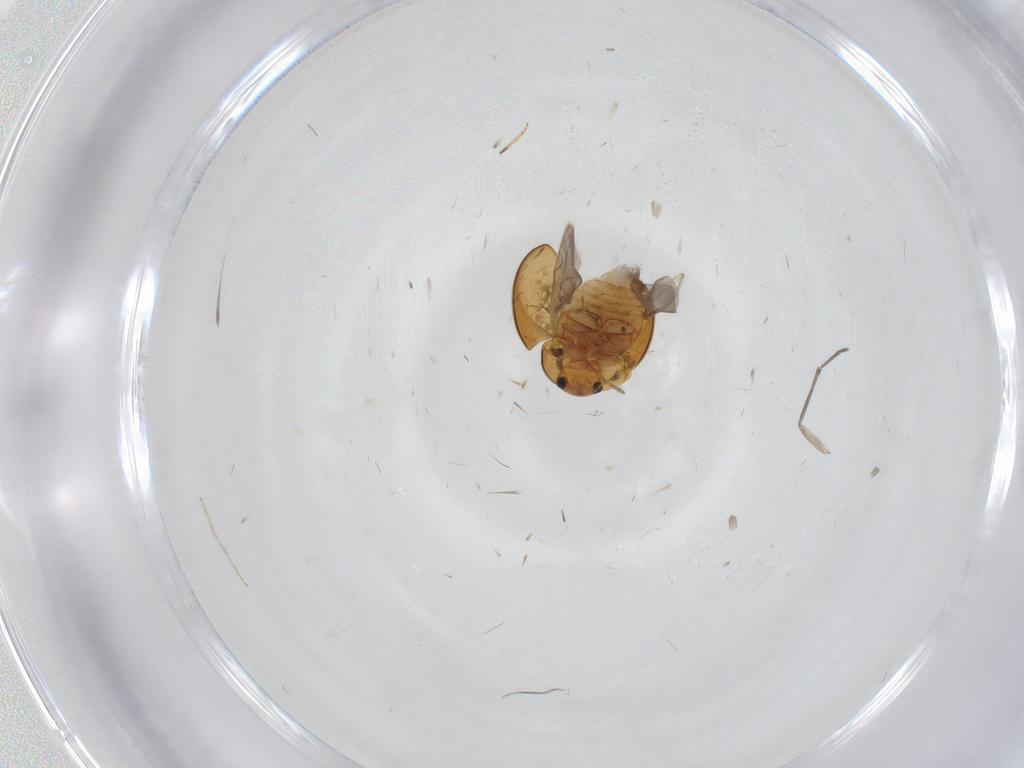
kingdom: Animalia
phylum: Arthropoda
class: Insecta
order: Coleoptera
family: Phalacridae
